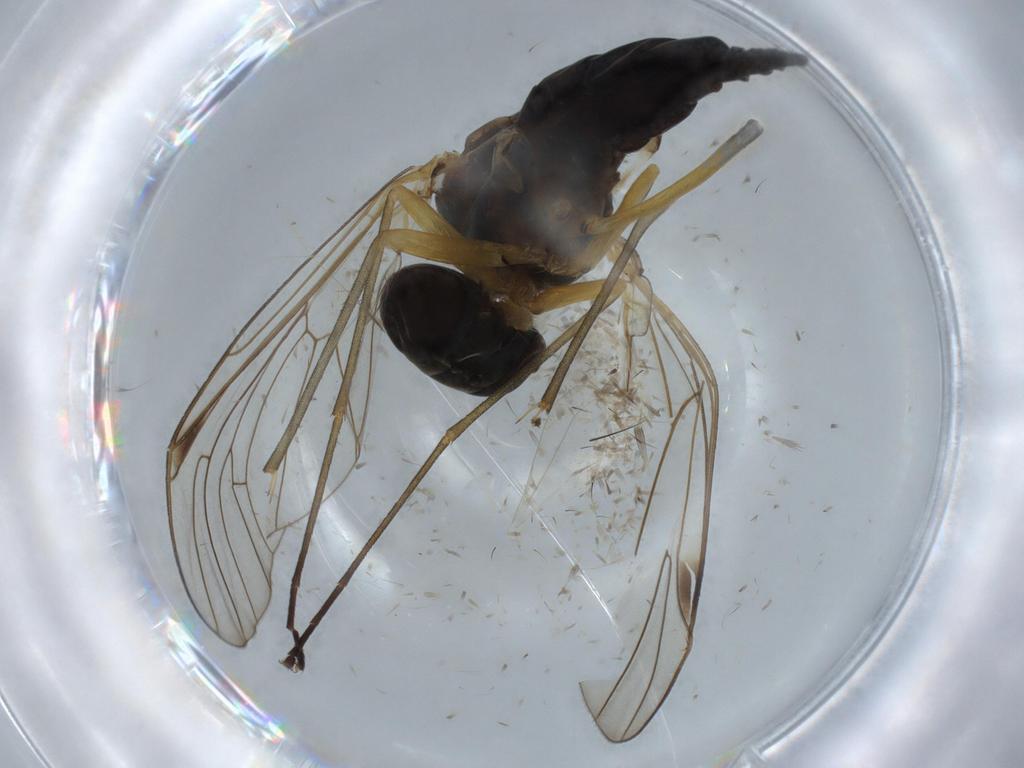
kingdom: Animalia
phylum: Arthropoda
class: Insecta
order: Diptera
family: Sciaridae
